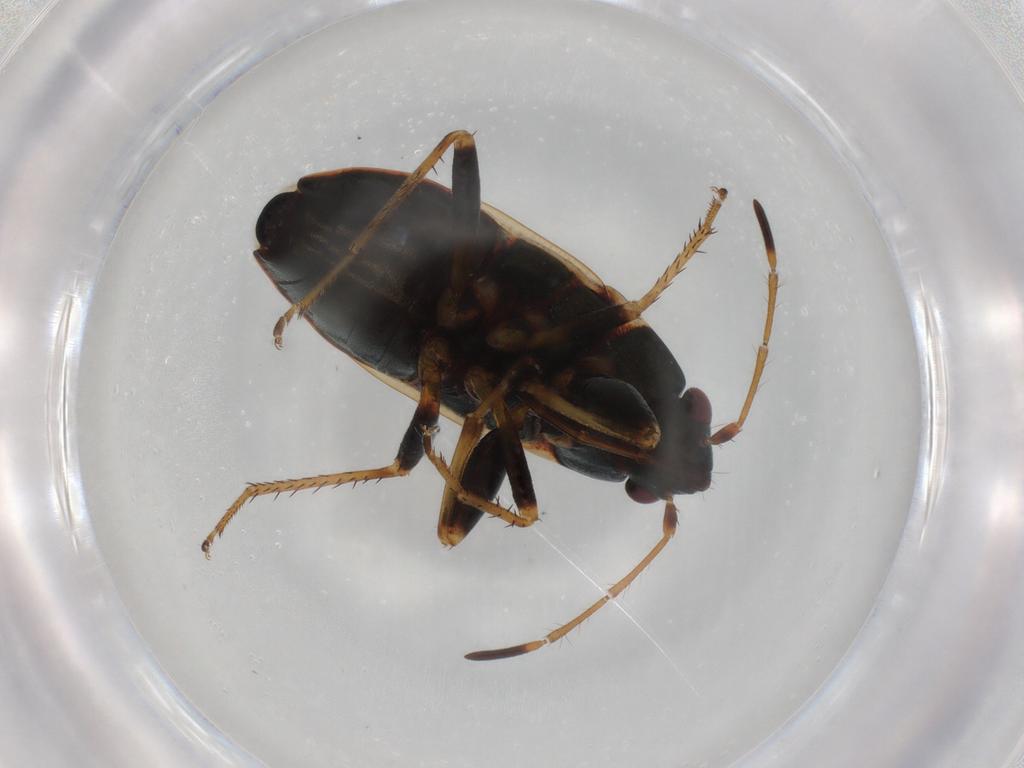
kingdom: Animalia
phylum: Arthropoda
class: Insecta
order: Hemiptera
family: Rhyparochromidae
